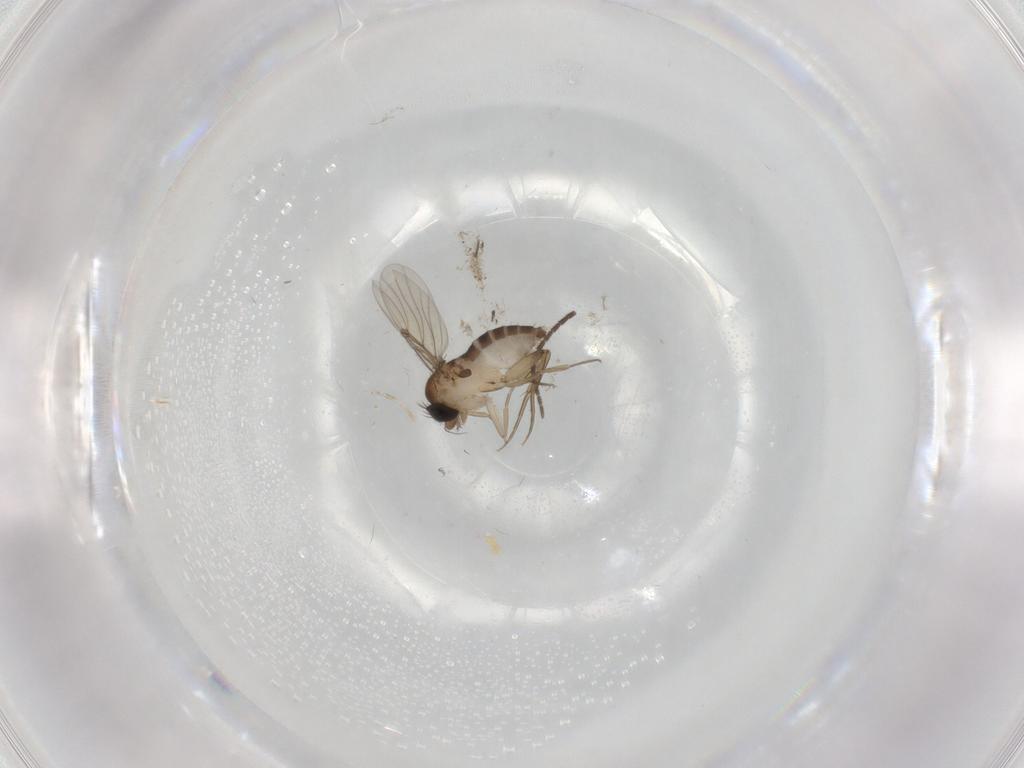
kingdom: Animalia
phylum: Arthropoda
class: Insecta
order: Diptera
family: Phoridae
